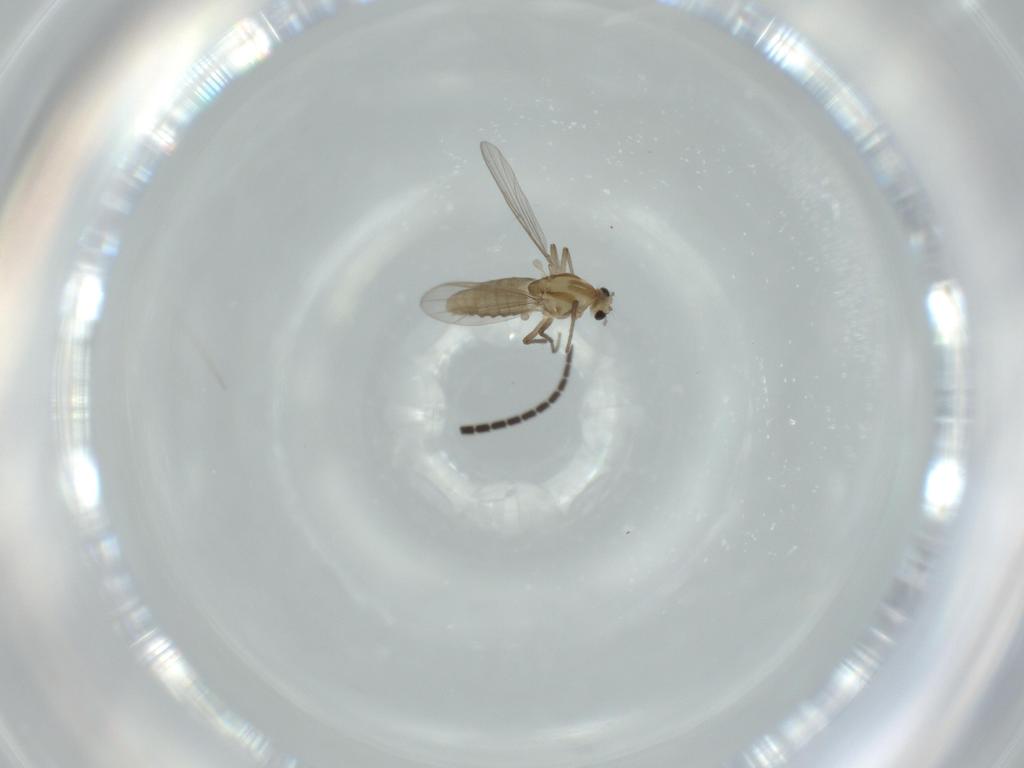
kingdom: Animalia
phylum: Arthropoda
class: Insecta
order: Diptera
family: Chironomidae
